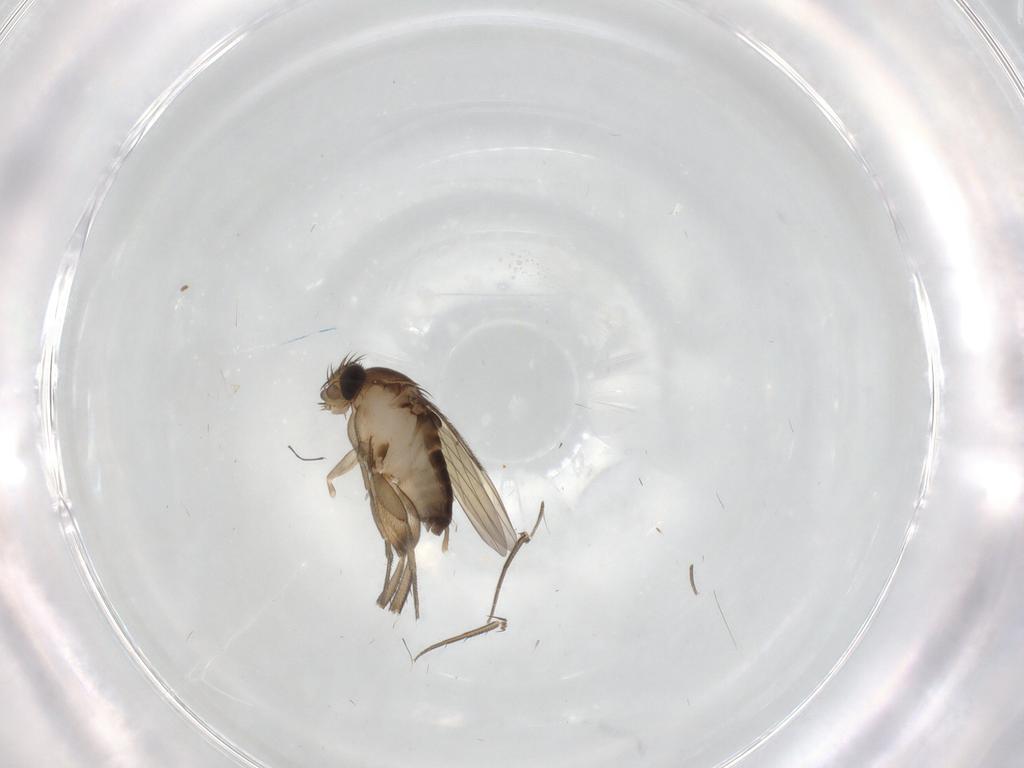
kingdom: Animalia
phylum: Arthropoda
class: Insecta
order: Diptera
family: Phoridae
